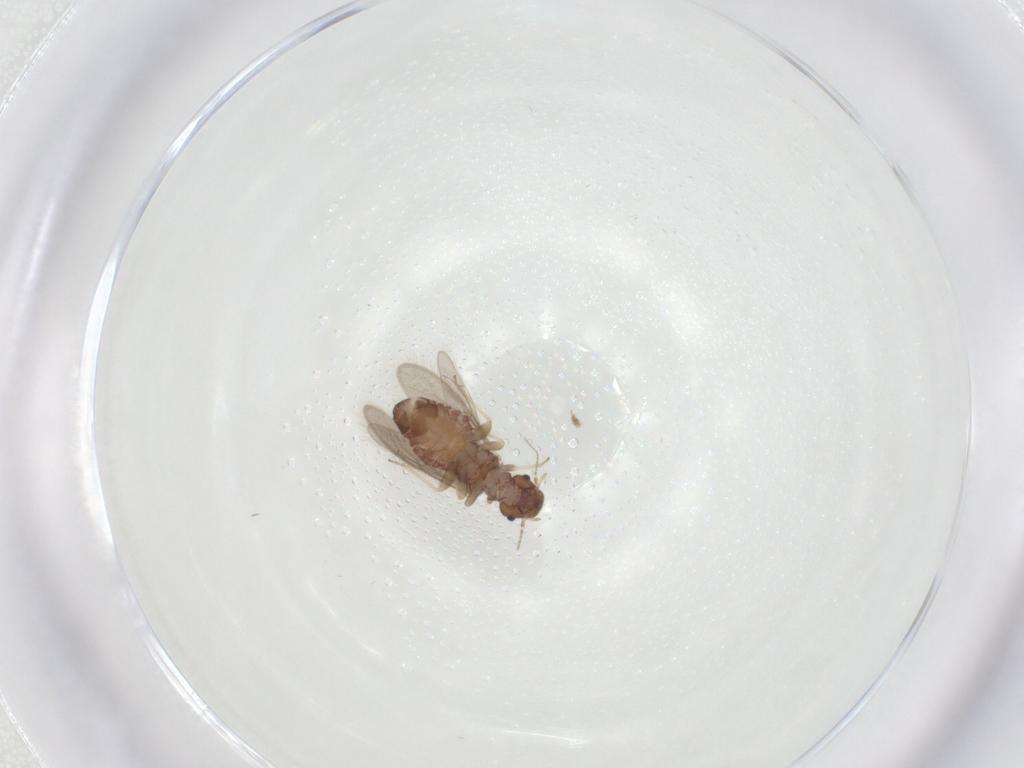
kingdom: Animalia
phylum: Arthropoda
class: Insecta
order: Psocodea
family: Archipsocidae
